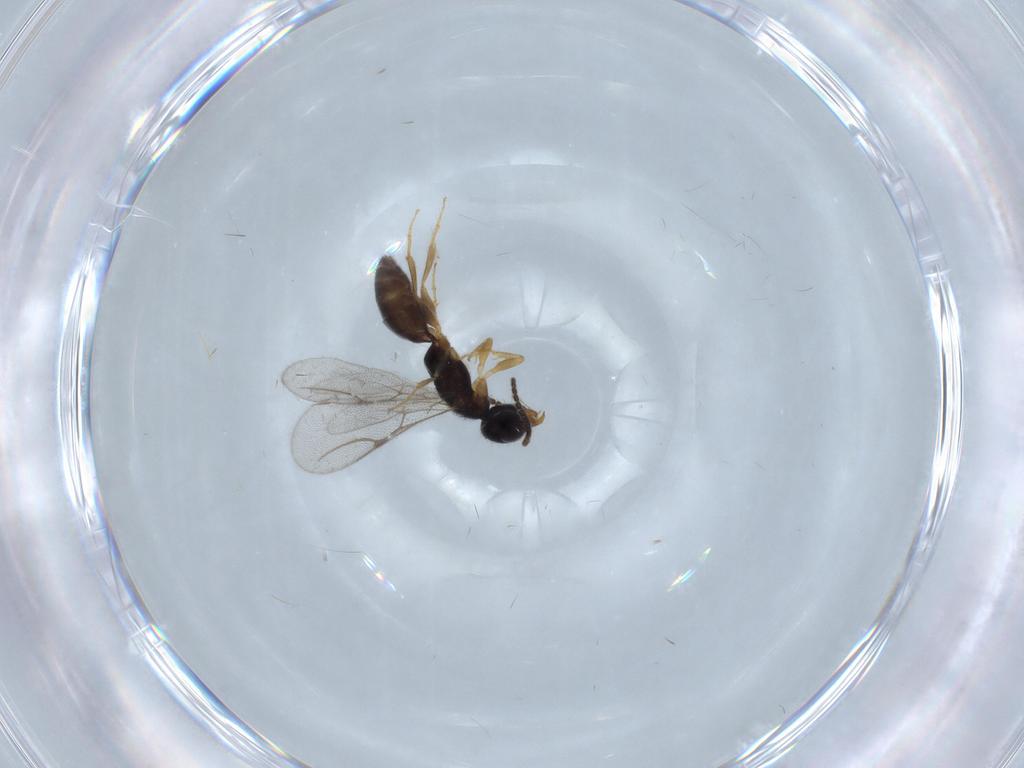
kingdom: Animalia
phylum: Arthropoda
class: Insecta
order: Hymenoptera
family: Bethylidae
